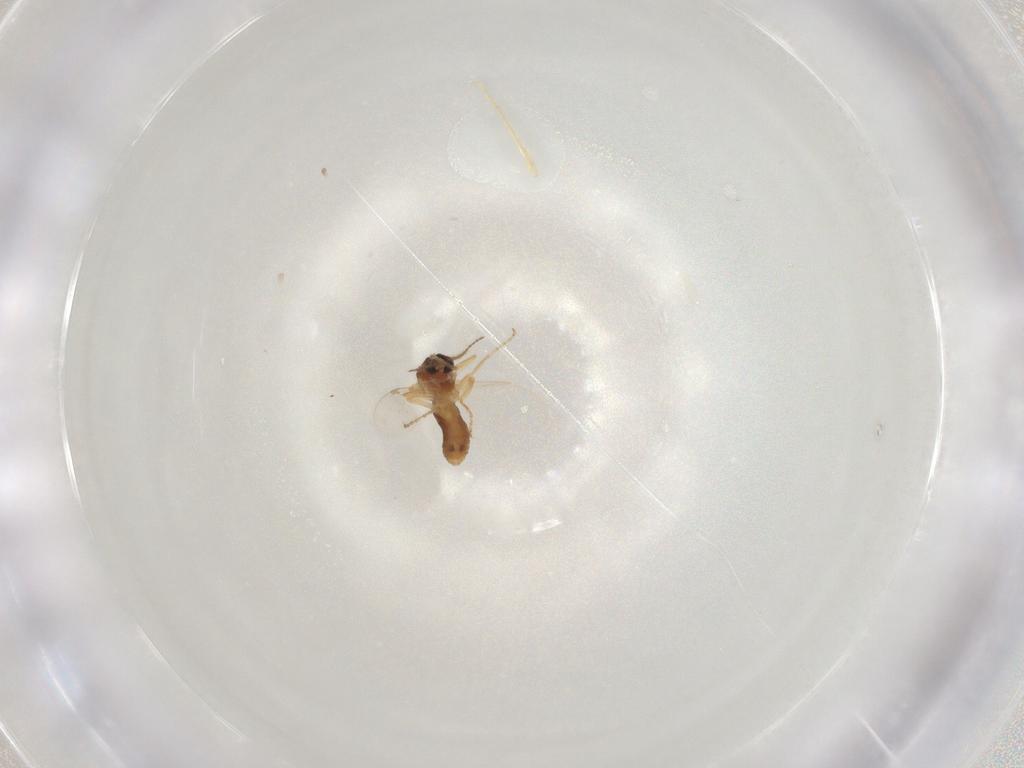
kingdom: Animalia
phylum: Arthropoda
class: Insecta
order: Diptera
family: Ceratopogonidae
